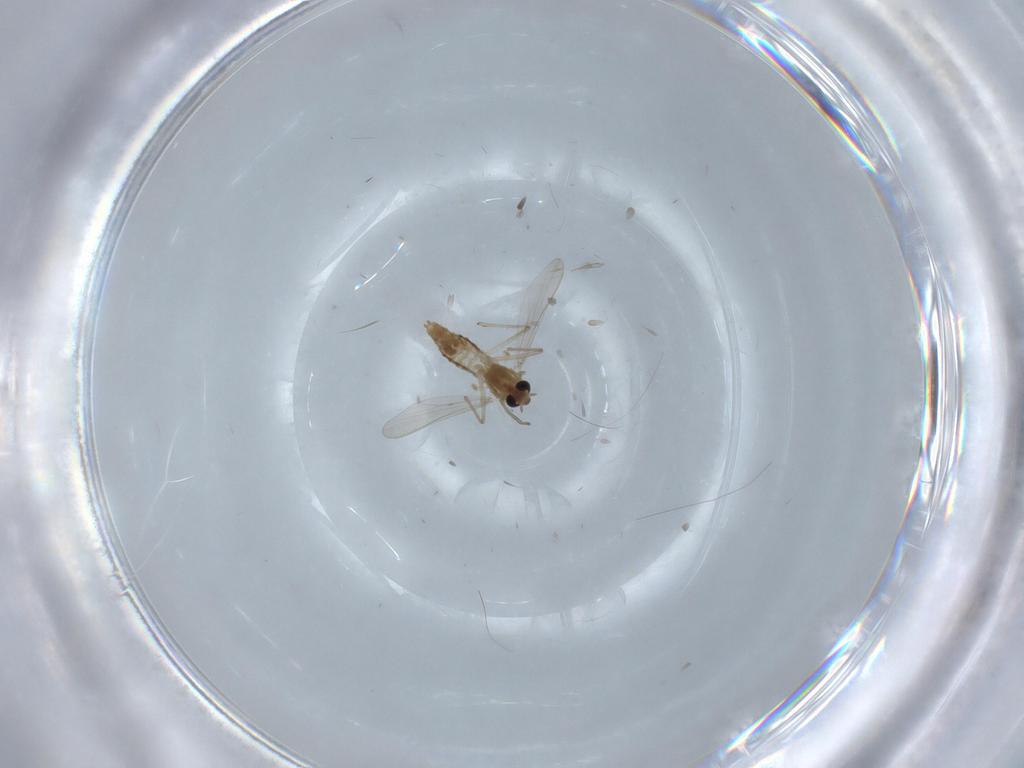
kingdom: Animalia
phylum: Arthropoda
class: Insecta
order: Diptera
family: Chironomidae
